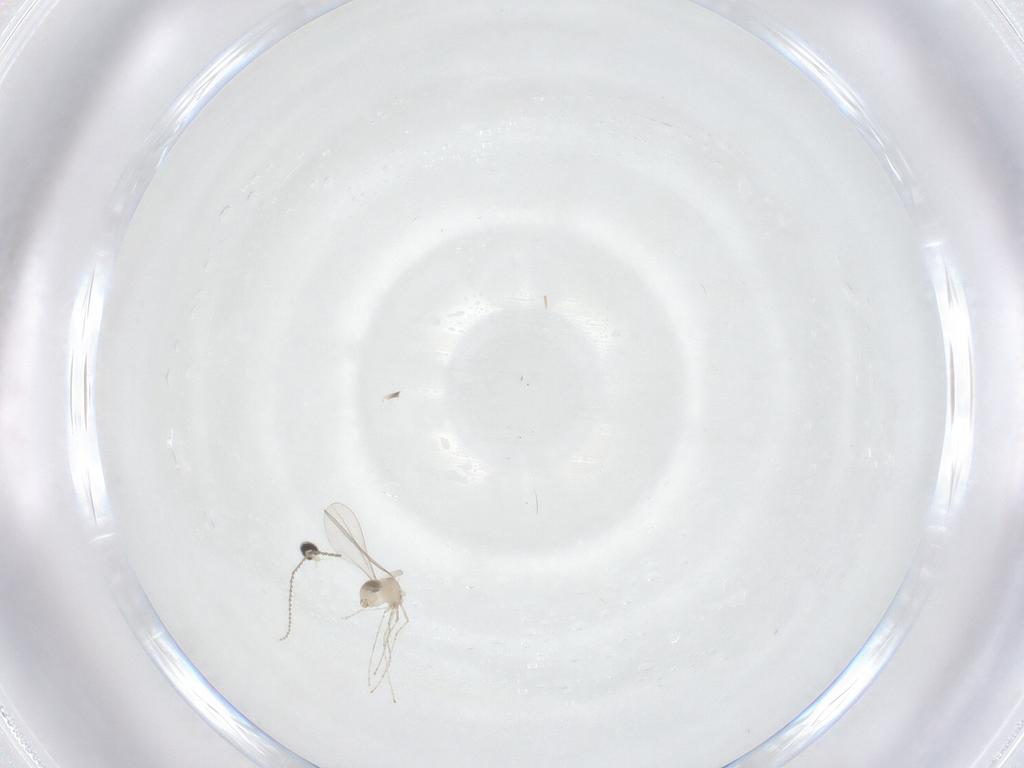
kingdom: Animalia
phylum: Arthropoda
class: Insecta
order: Diptera
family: Cecidomyiidae
